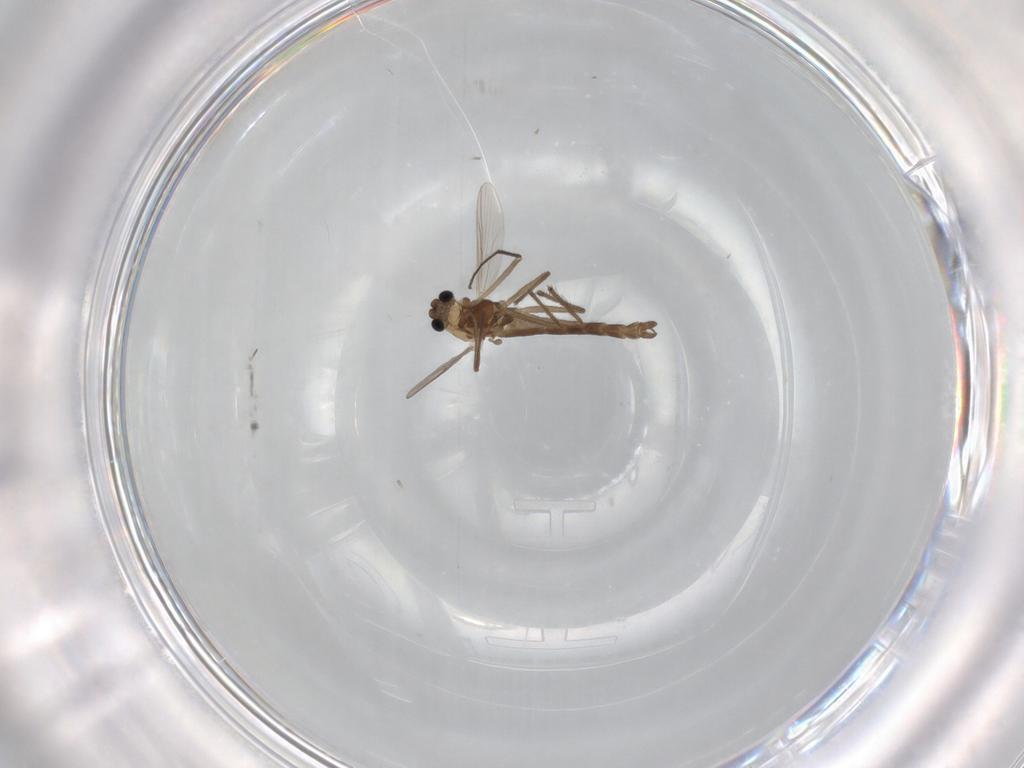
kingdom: Animalia
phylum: Arthropoda
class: Insecta
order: Diptera
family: Chironomidae
